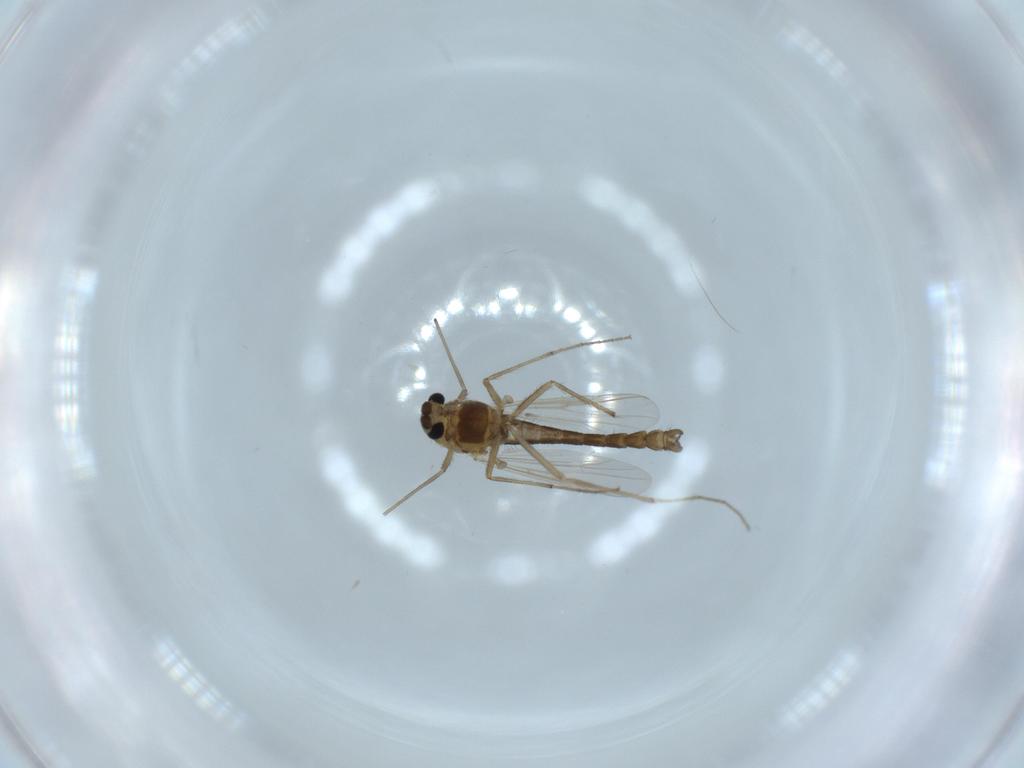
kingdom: Animalia
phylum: Arthropoda
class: Insecta
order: Diptera
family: Chironomidae
